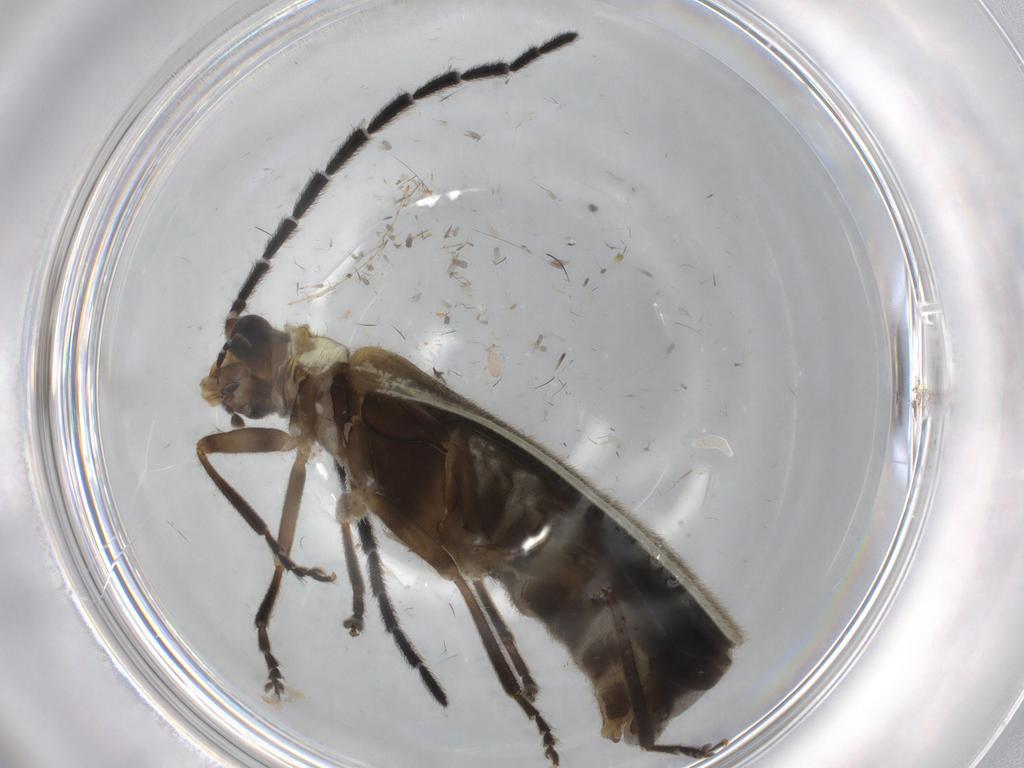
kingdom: Animalia
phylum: Arthropoda
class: Insecta
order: Coleoptera
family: Cantharidae
